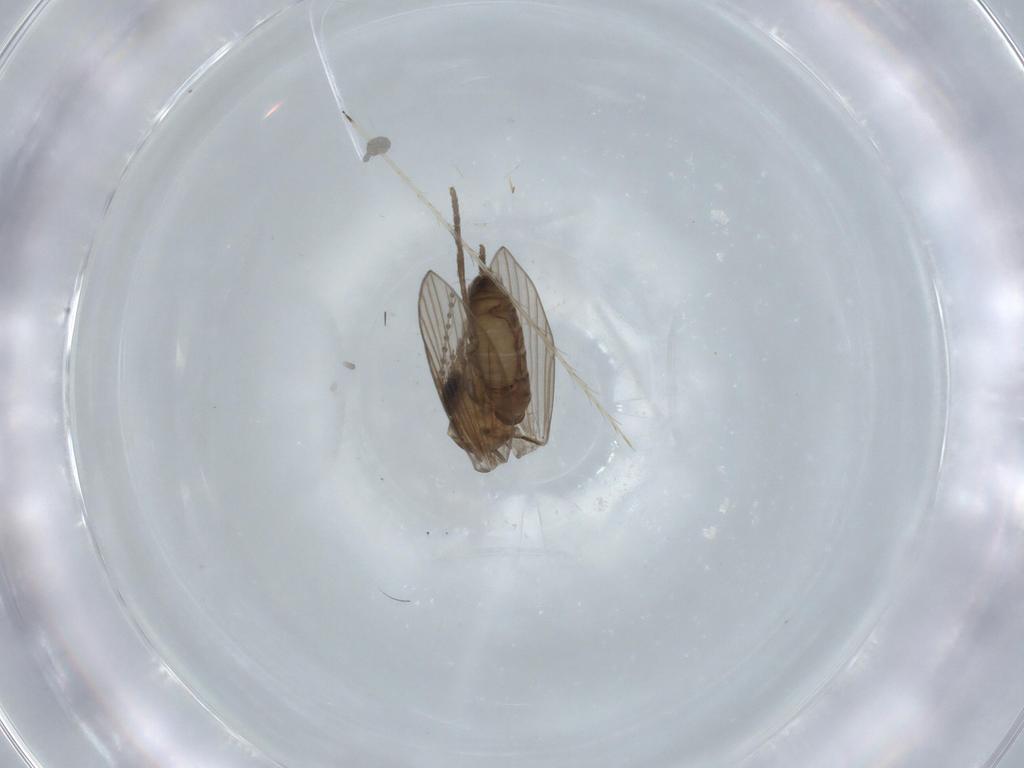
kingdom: Animalia
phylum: Arthropoda
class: Insecta
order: Diptera
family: Psychodidae
